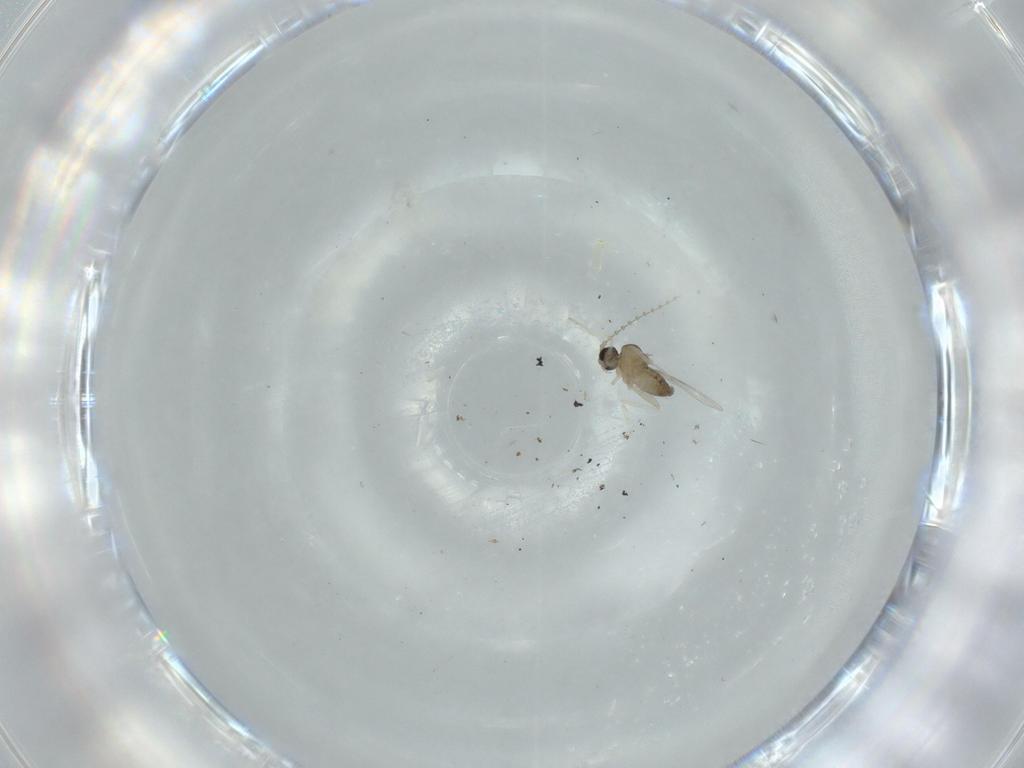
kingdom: Animalia
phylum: Arthropoda
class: Insecta
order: Diptera
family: Cecidomyiidae
